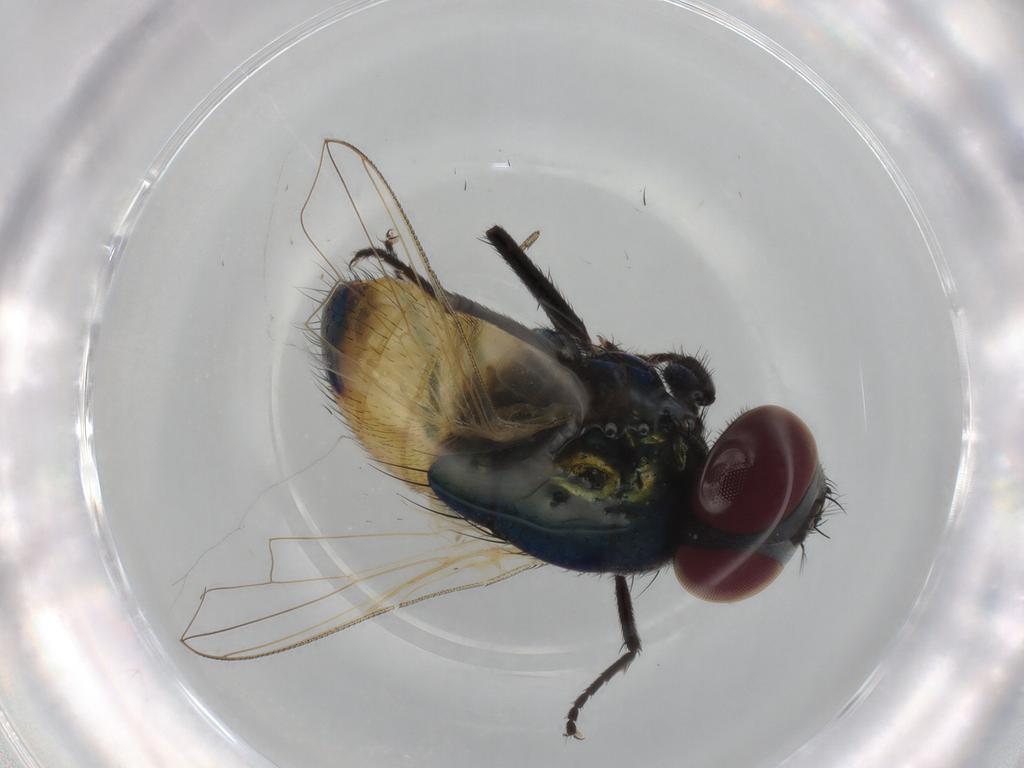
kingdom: Animalia
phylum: Arthropoda
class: Insecta
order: Diptera
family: Muscidae
